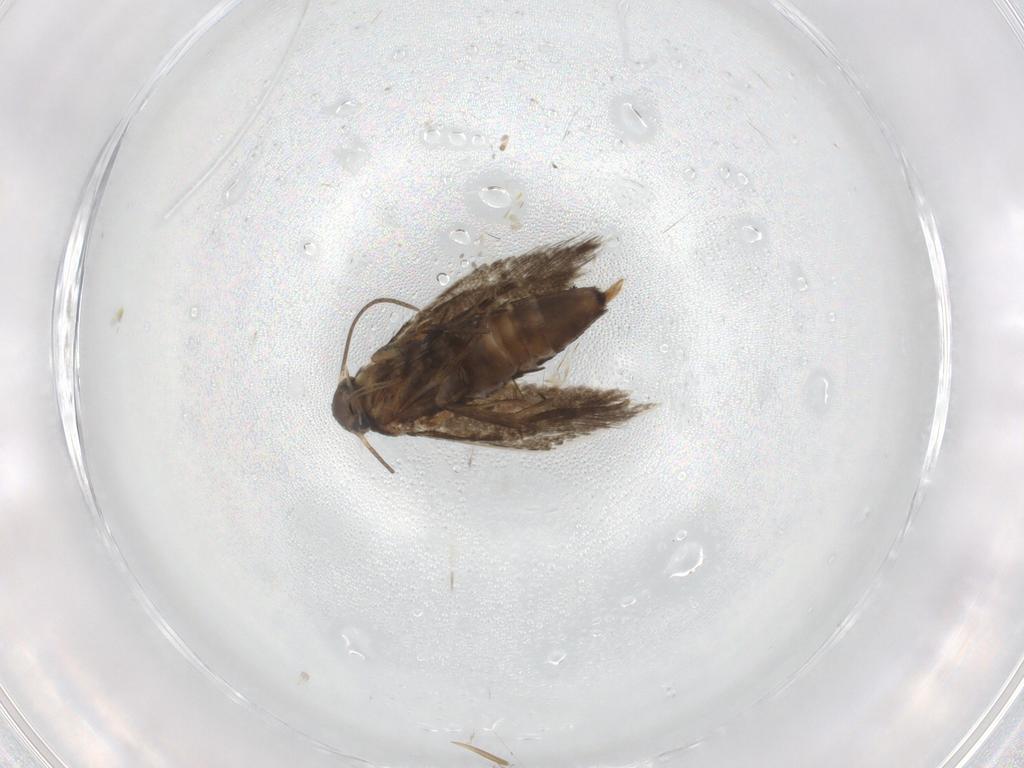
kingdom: Animalia
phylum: Arthropoda
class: Insecta
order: Lepidoptera
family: Heliozelidae
